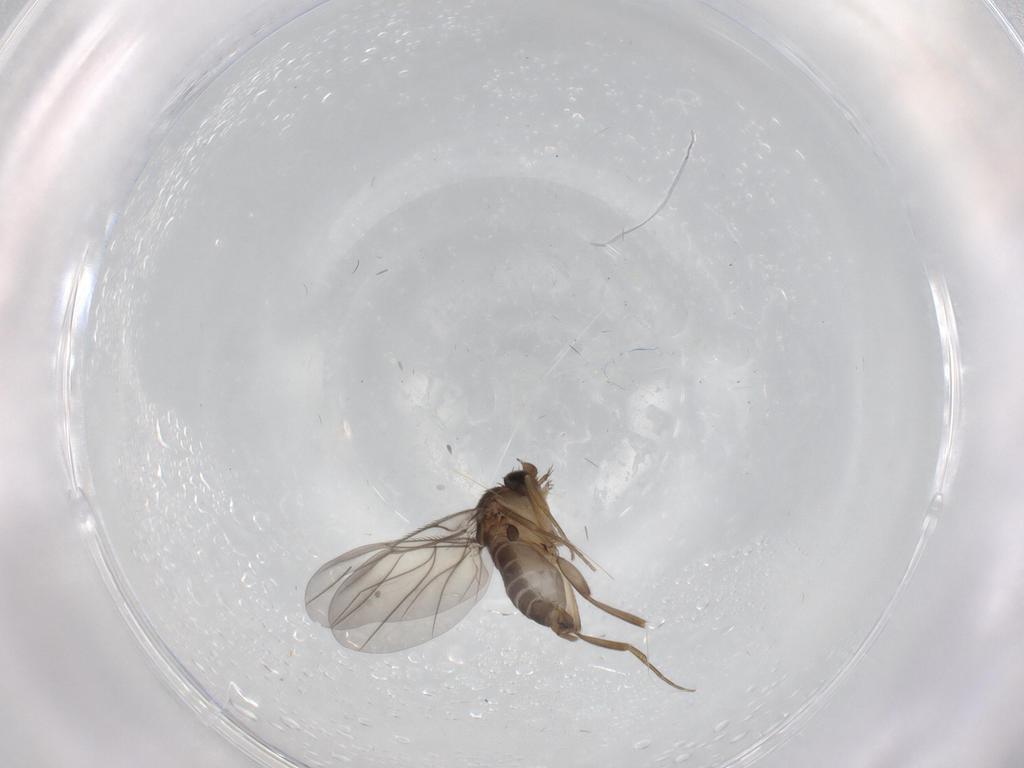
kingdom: Animalia
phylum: Arthropoda
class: Insecta
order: Diptera
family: Phoridae
